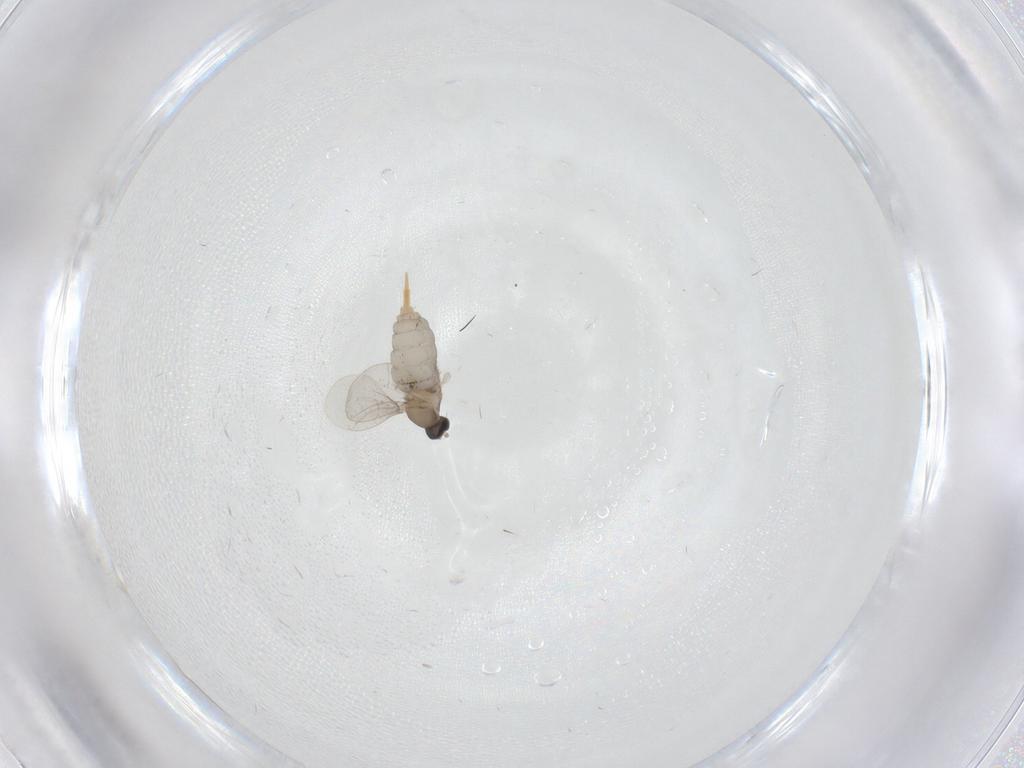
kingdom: Animalia
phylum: Arthropoda
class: Insecta
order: Diptera
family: Cecidomyiidae
